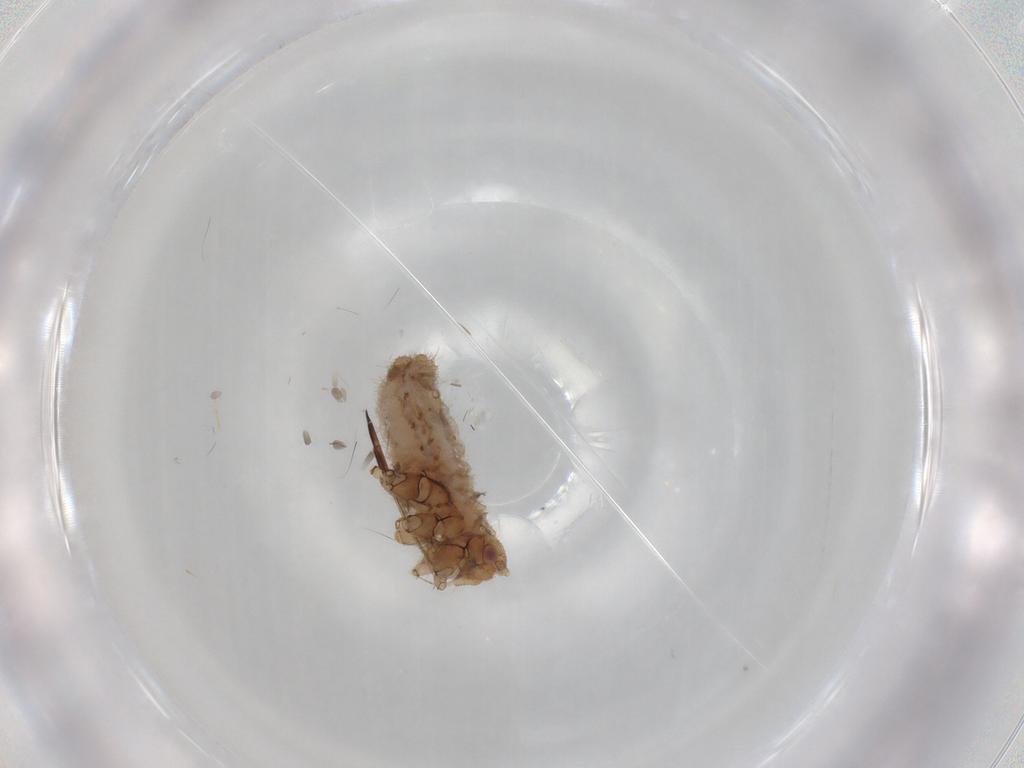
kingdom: Animalia
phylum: Arthropoda
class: Insecta
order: Hemiptera
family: Aphididae
